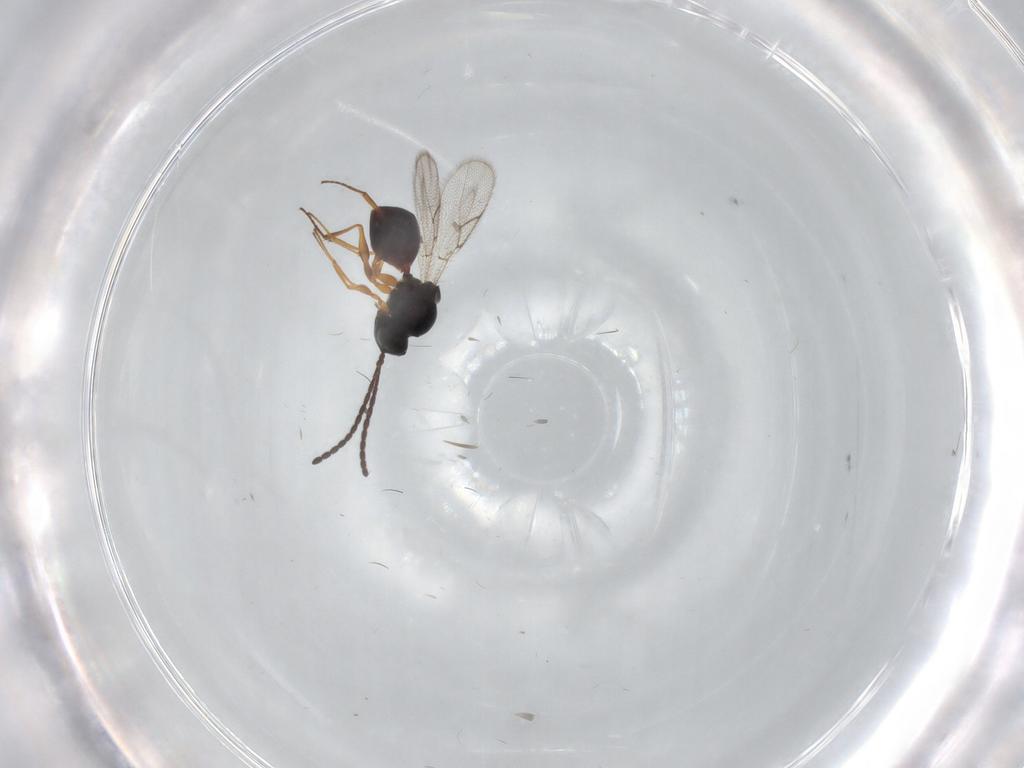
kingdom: Animalia
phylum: Arthropoda
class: Insecta
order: Hymenoptera
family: Figitidae
